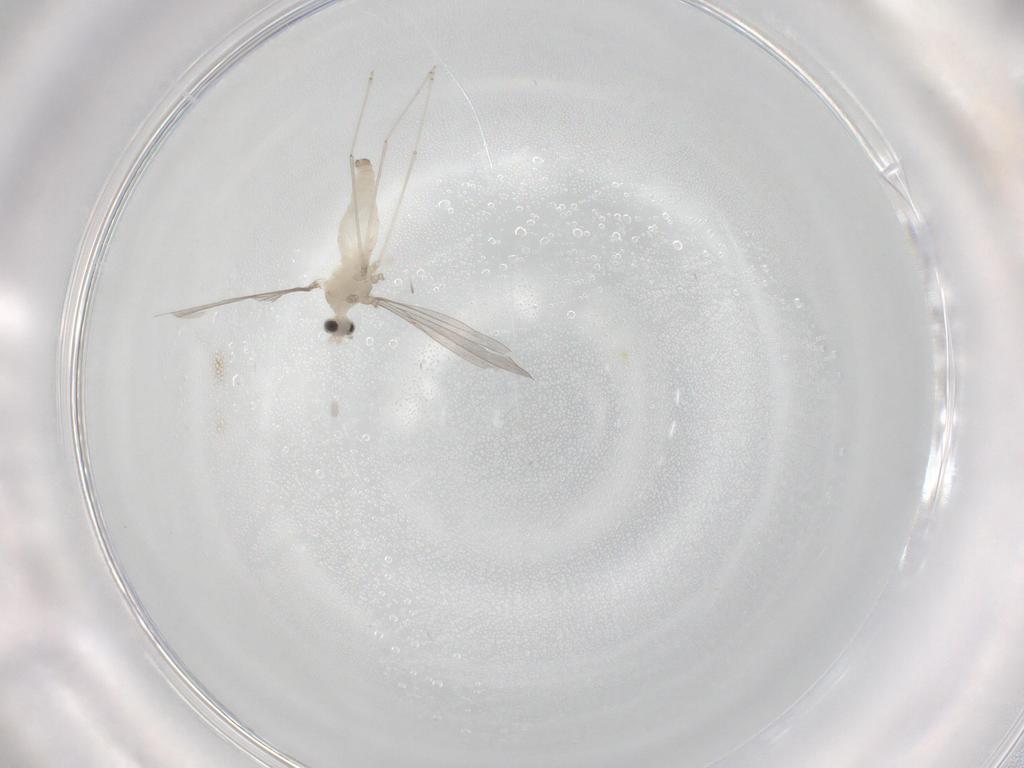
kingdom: Animalia
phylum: Arthropoda
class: Insecta
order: Diptera
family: Cecidomyiidae
